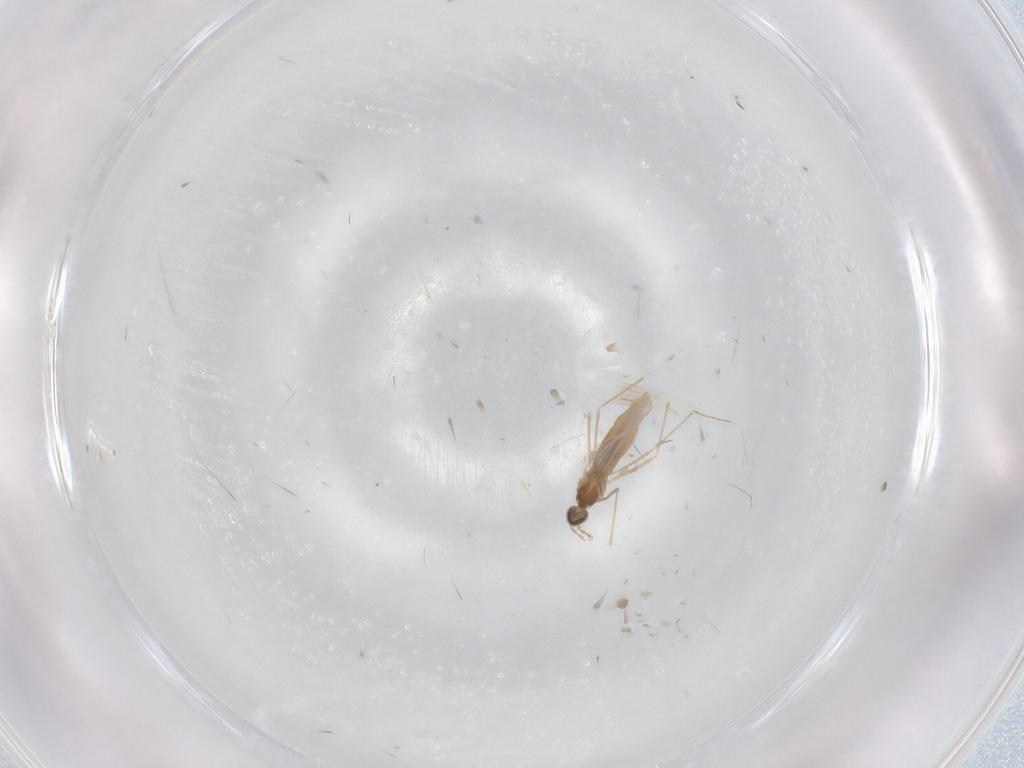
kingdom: Animalia
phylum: Arthropoda
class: Insecta
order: Diptera
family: Cecidomyiidae
